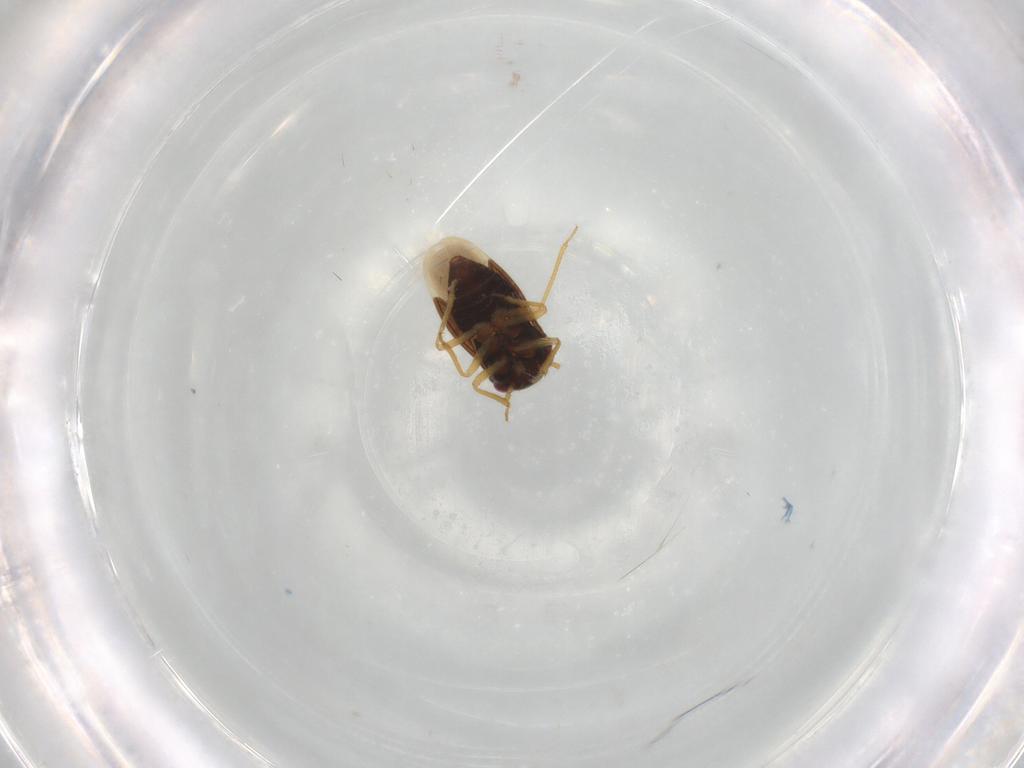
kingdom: Animalia
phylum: Arthropoda
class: Insecta
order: Hemiptera
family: Schizopteridae
